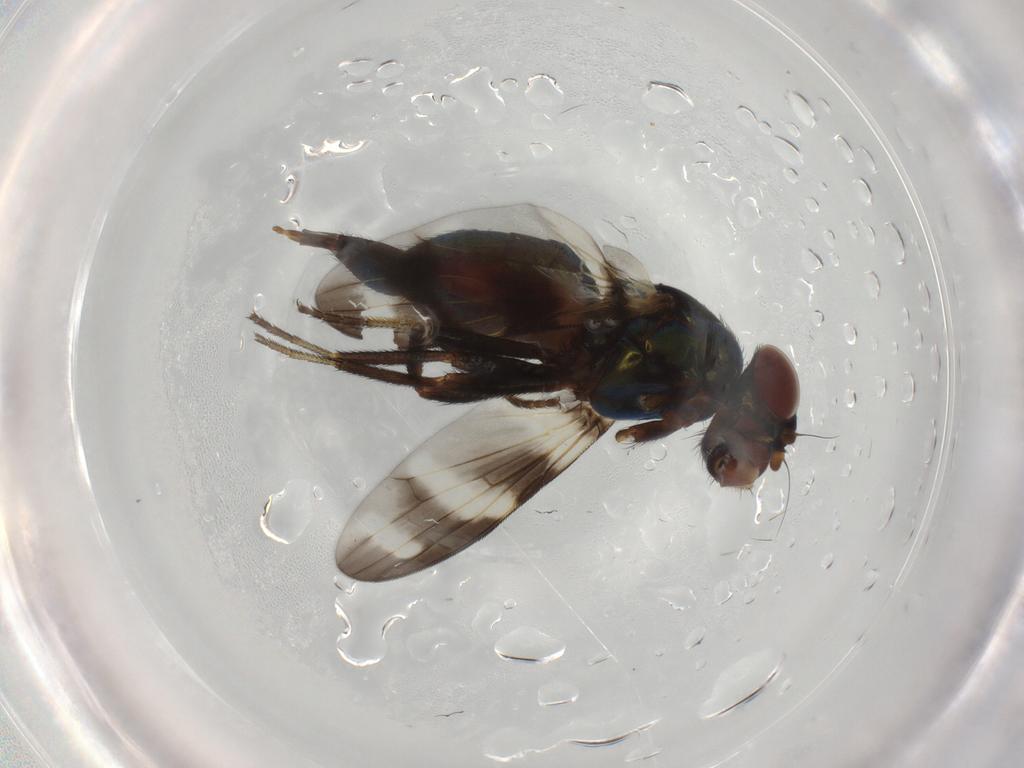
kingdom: Animalia
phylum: Arthropoda
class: Insecta
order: Diptera
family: Ulidiidae
